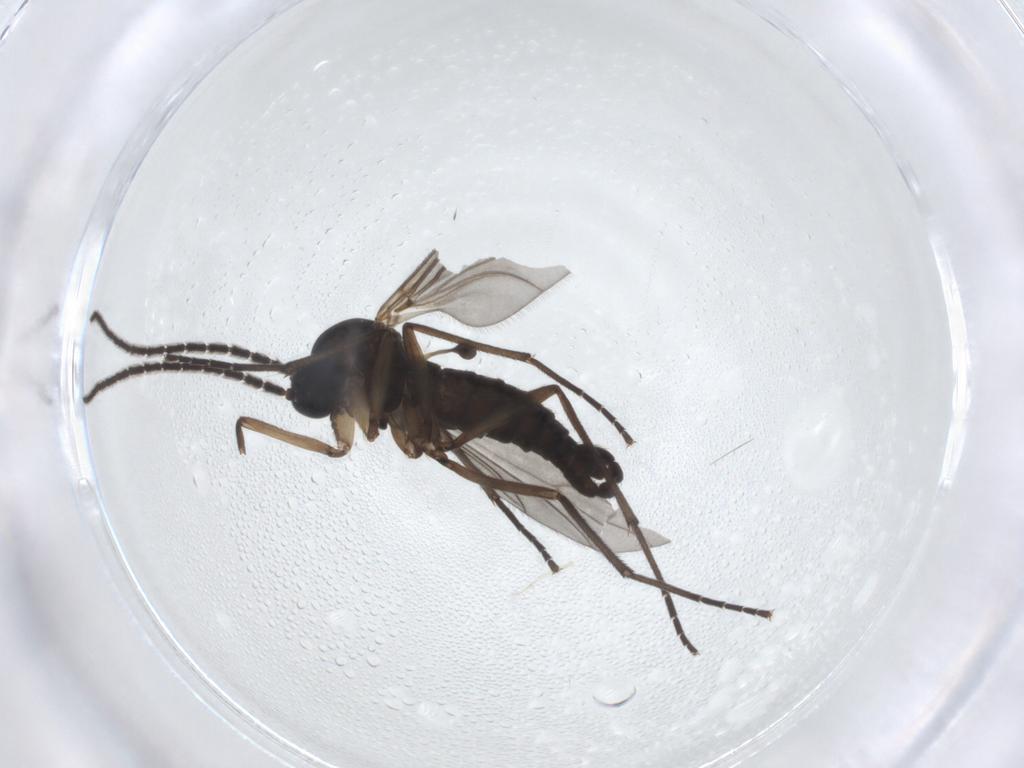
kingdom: Animalia
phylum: Arthropoda
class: Insecta
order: Diptera
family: Sciaridae
